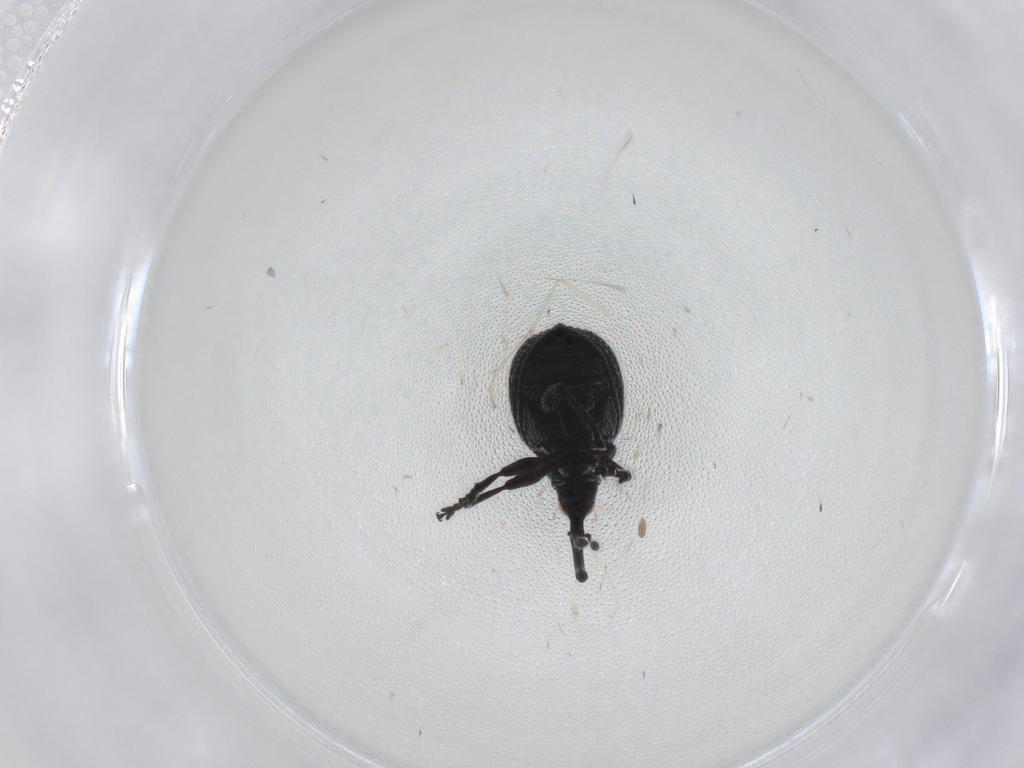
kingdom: Animalia
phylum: Arthropoda
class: Insecta
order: Coleoptera
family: Brentidae
